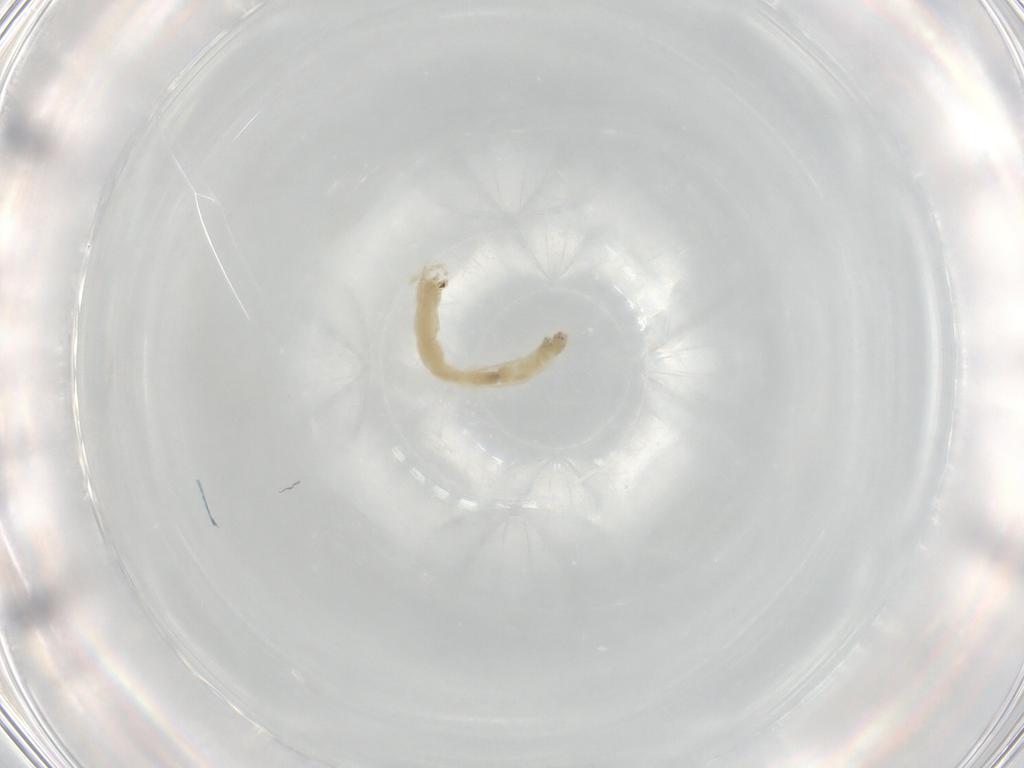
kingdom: Animalia
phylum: Arthropoda
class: Insecta
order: Diptera
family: Chironomidae
